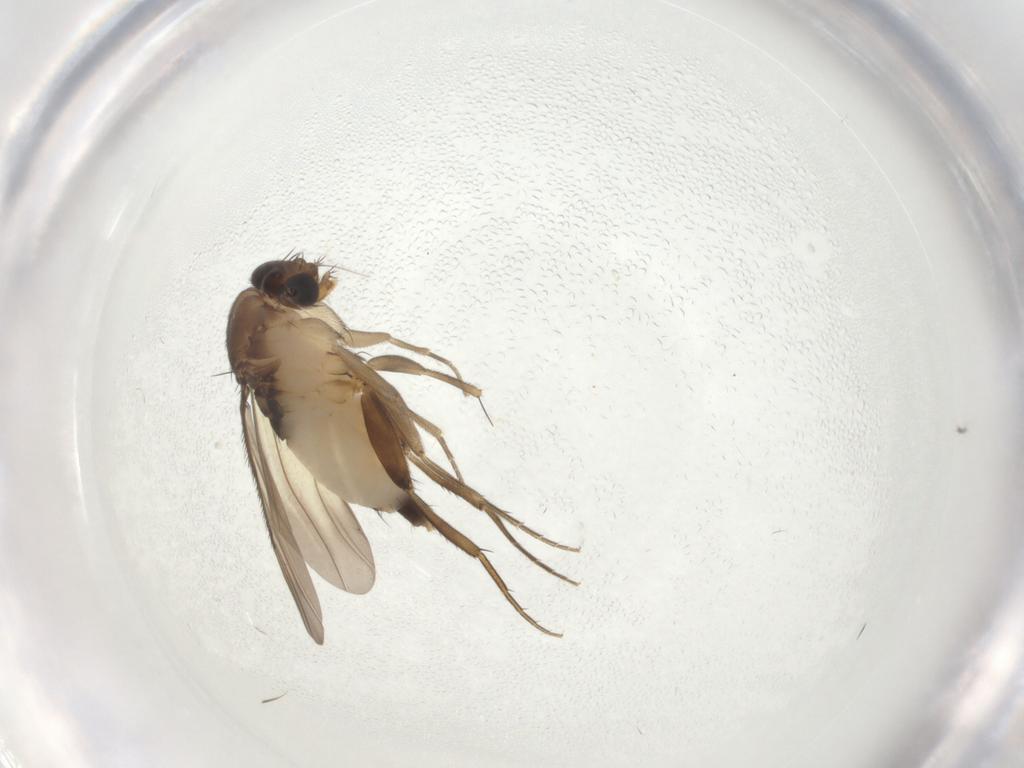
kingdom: Animalia
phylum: Arthropoda
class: Insecta
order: Diptera
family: Phoridae
